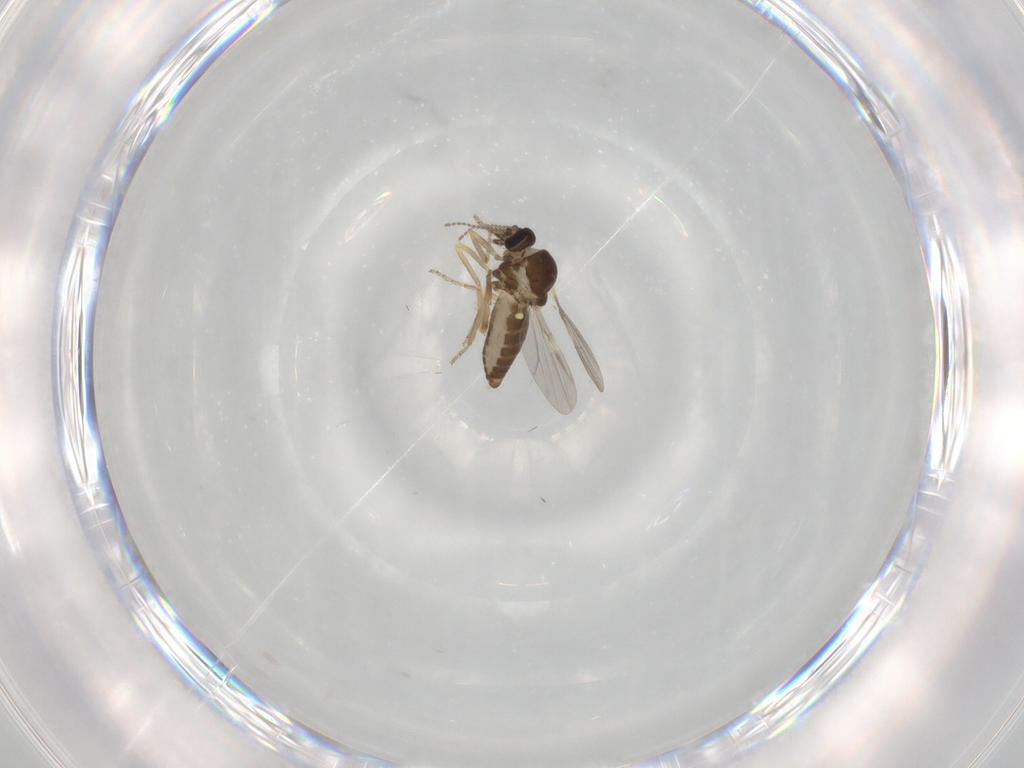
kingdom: Animalia
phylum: Arthropoda
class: Insecta
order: Diptera
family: Ceratopogonidae
